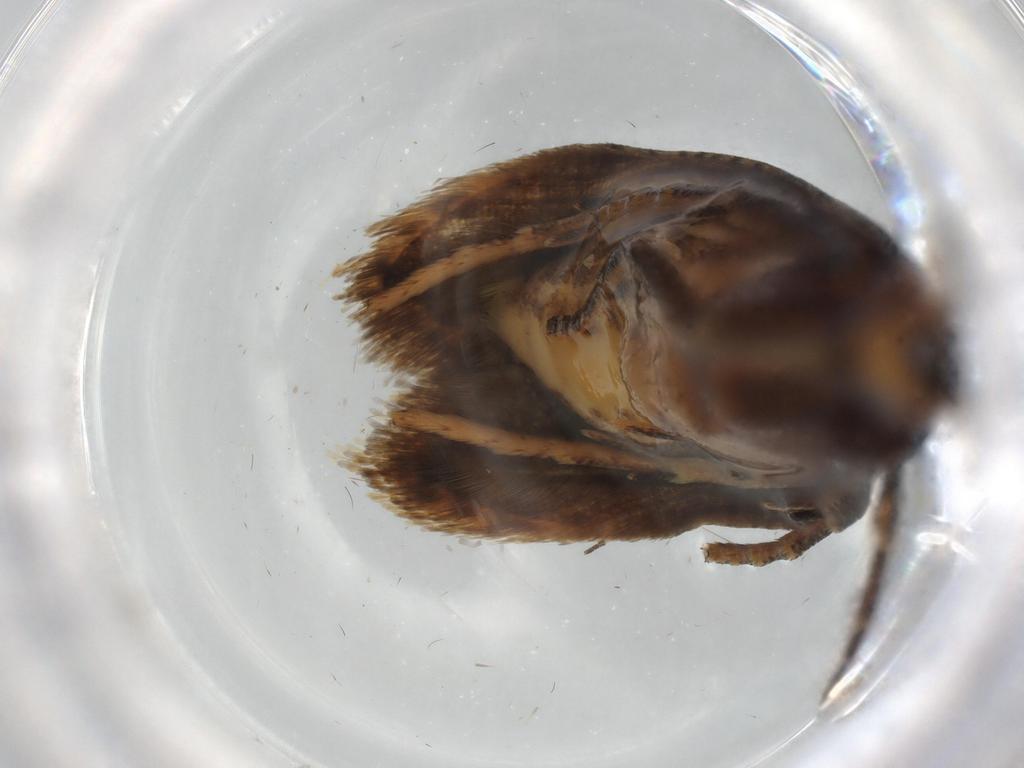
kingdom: Animalia
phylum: Arthropoda
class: Insecta
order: Lepidoptera
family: Gelechiidae
